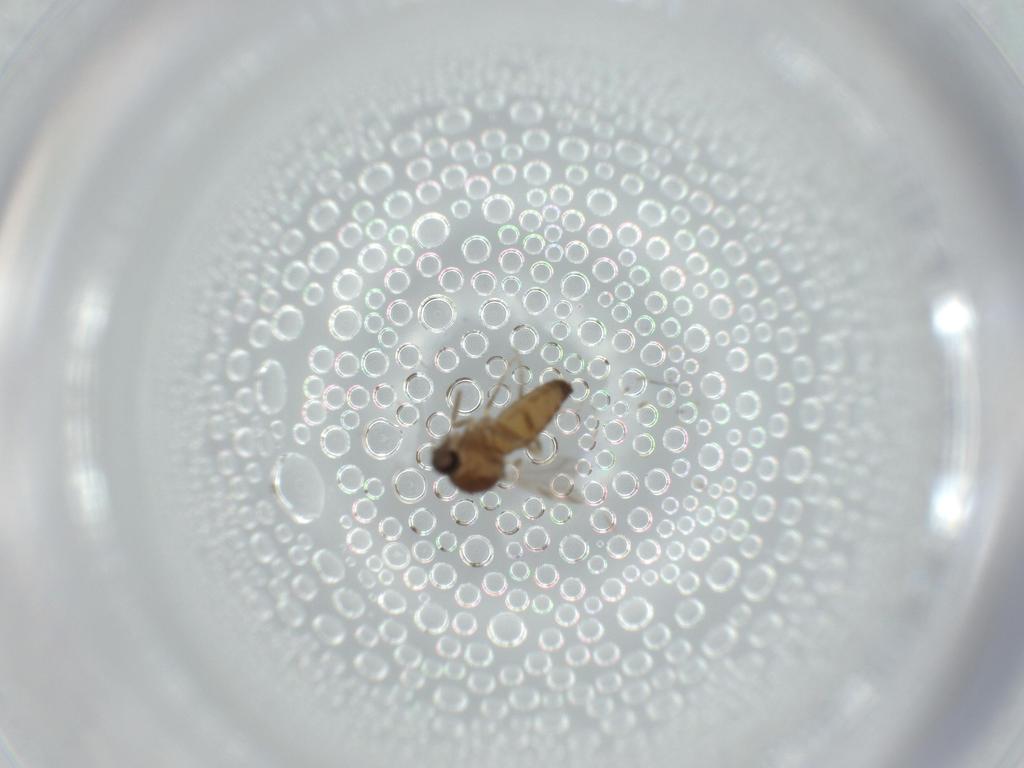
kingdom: Animalia
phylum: Arthropoda
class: Insecta
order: Diptera
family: Ceratopogonidae
